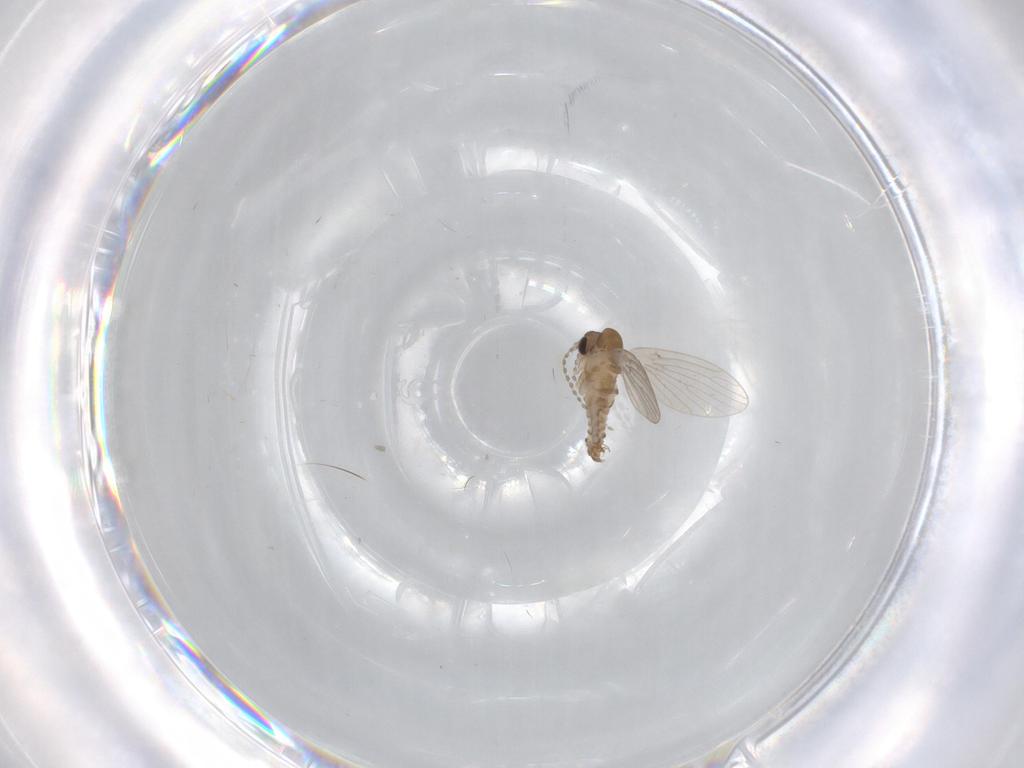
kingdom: Animalia
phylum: Arthropoda
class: Insecta
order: Diptera
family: Psychodidae
